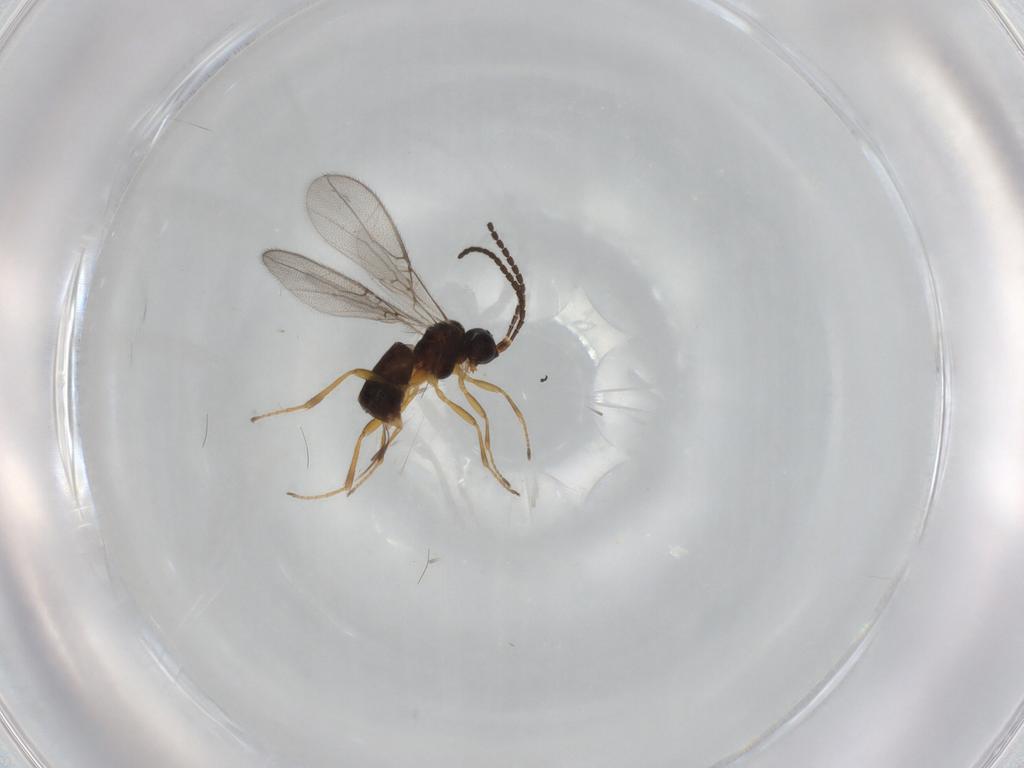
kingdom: Animalia
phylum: Arthropoda
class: Insecta
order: Hymenoptera
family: Braconidae
